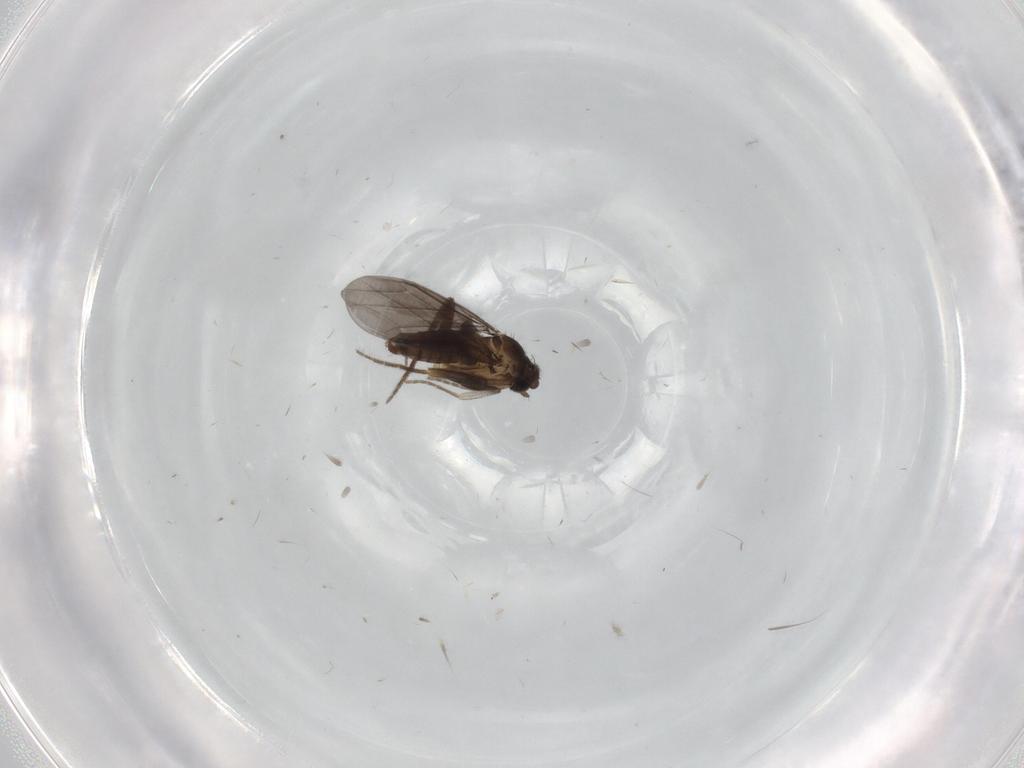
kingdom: Animalia
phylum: Arthropoda
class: Insecta
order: Diptera
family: Phoridae
